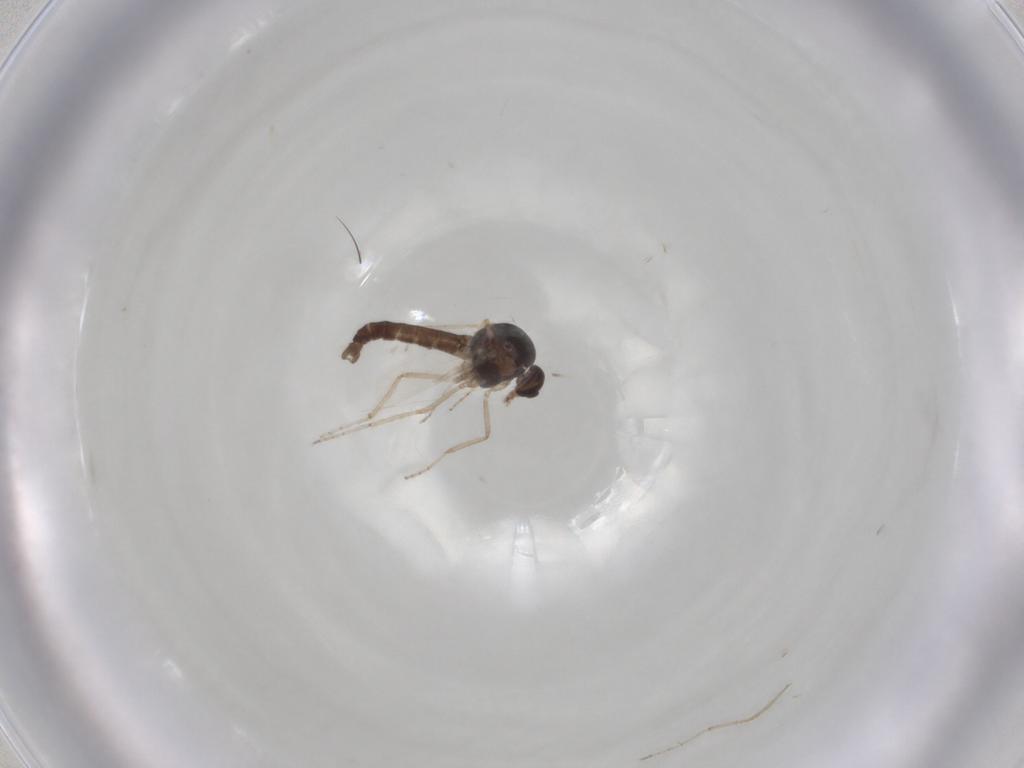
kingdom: Animalia
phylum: Arthropoda
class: Insecta
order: Diptera
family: Ceratopogonidae
